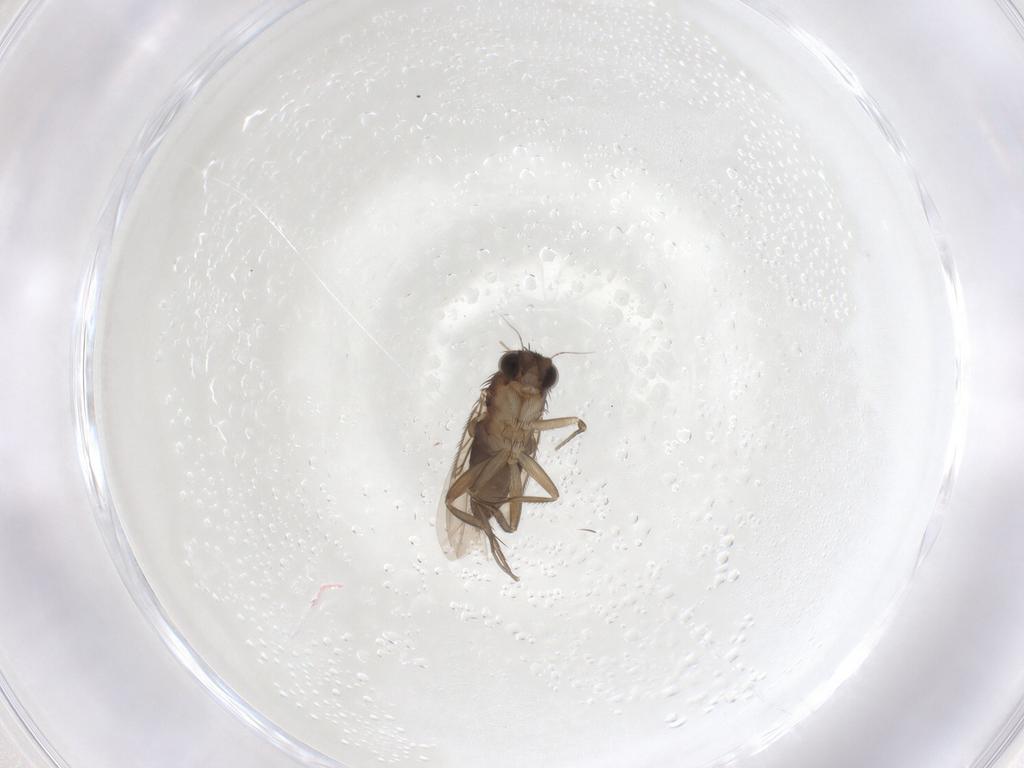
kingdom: Animalia
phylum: Arthropoda
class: Insecta
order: Diptera
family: Phoridae
